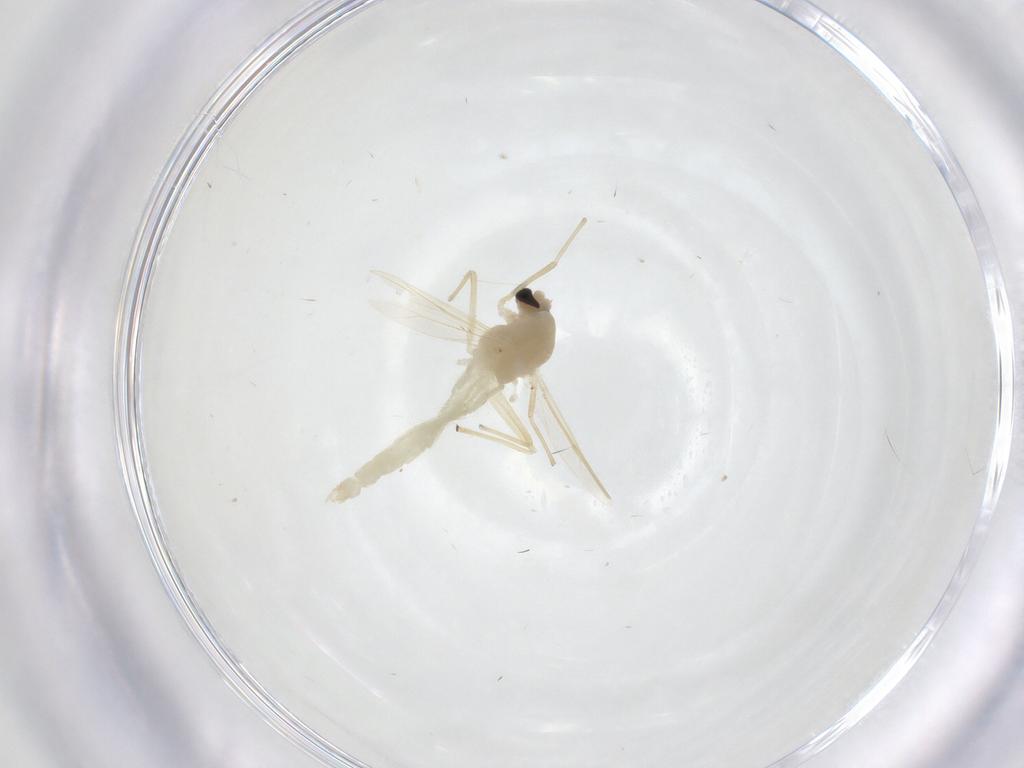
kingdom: Animalia
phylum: Arthropoda
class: Insecta
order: Diptera
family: Chironomidae
